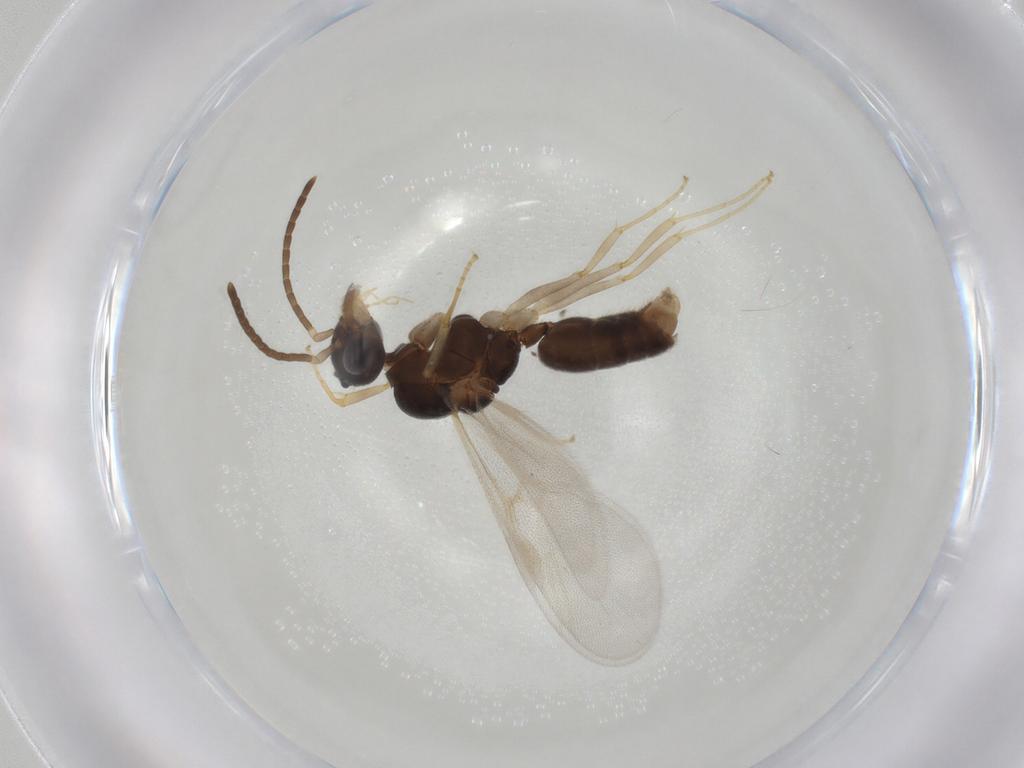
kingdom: Animalia
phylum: Arthropoda
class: Insecta
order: Hymenoptera
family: Formicidae
